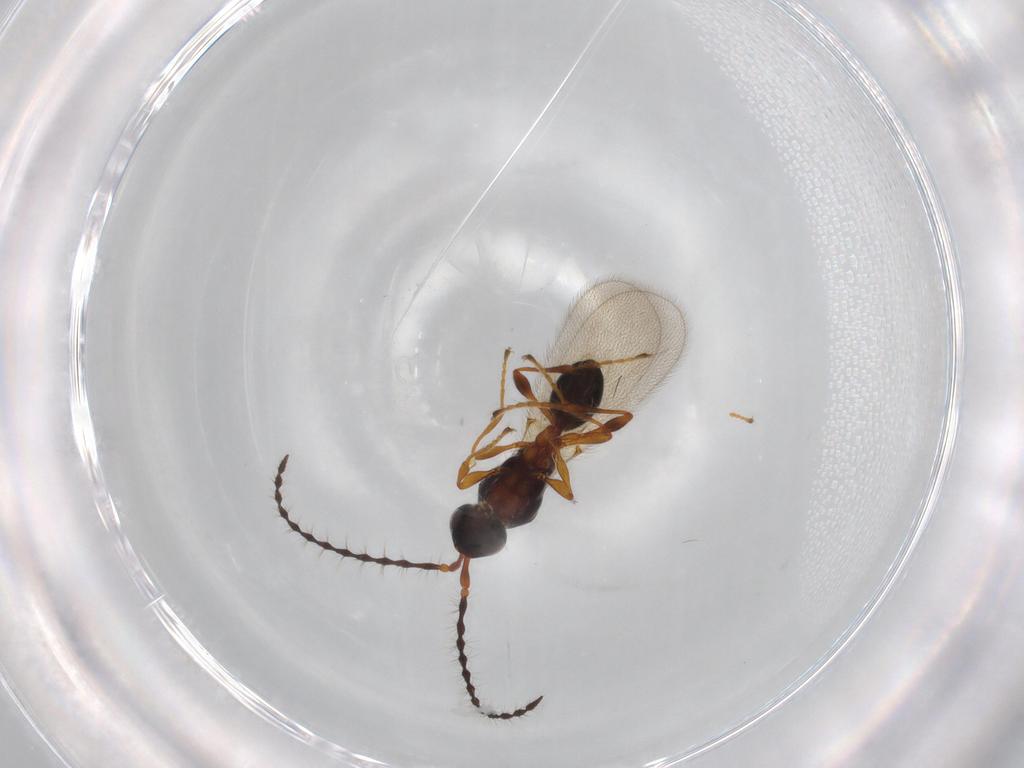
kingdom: Animalia
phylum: Arthropoda
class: Insecta
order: Hymenoptera
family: Diapriidae
